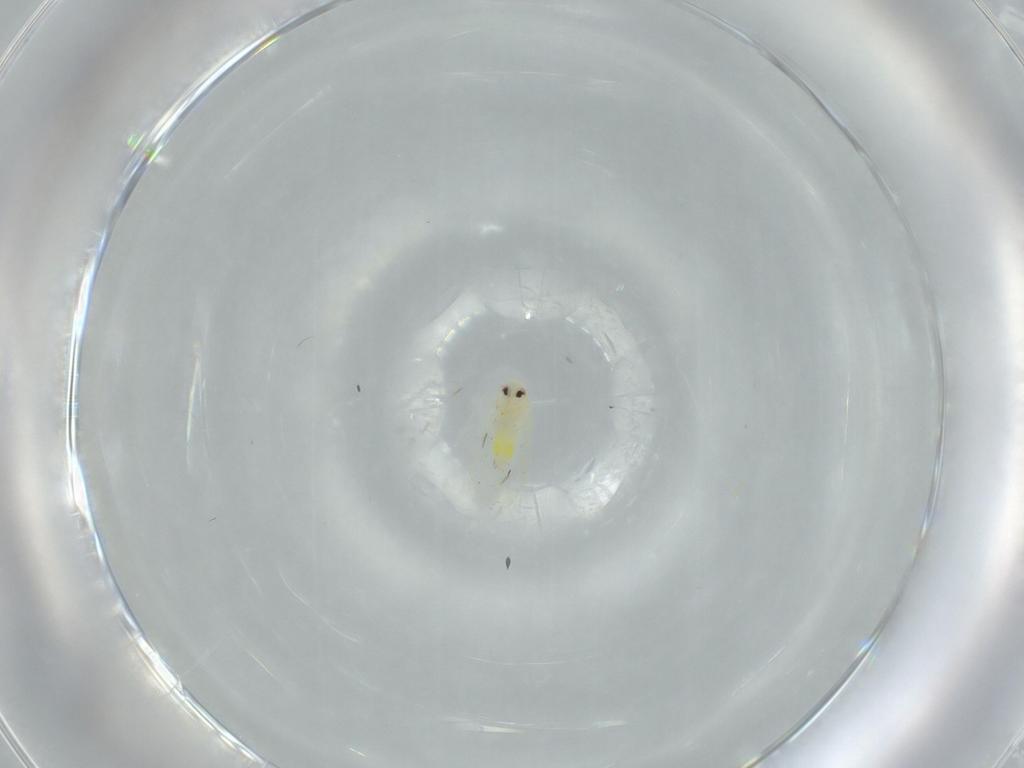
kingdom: Animalia
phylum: Arthropoda
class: Insecta
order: Hemiptera
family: Aleyrodidae
